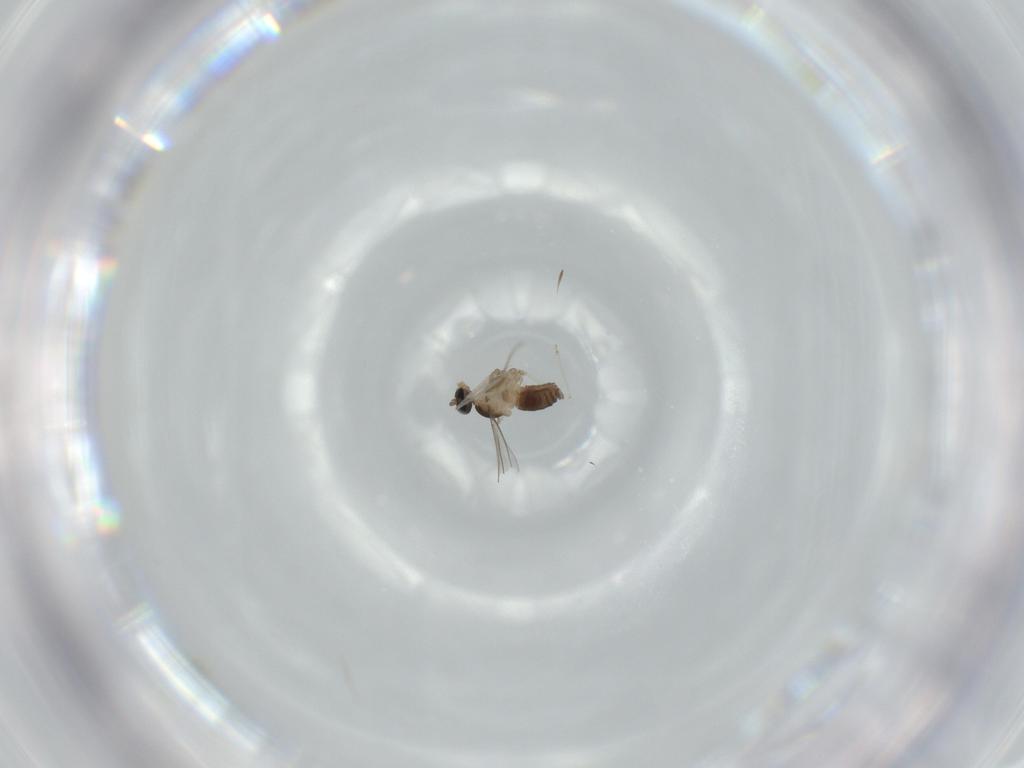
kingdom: Animalia
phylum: Arthropoda
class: Insecta
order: Diptera
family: Cecidomyiidae
